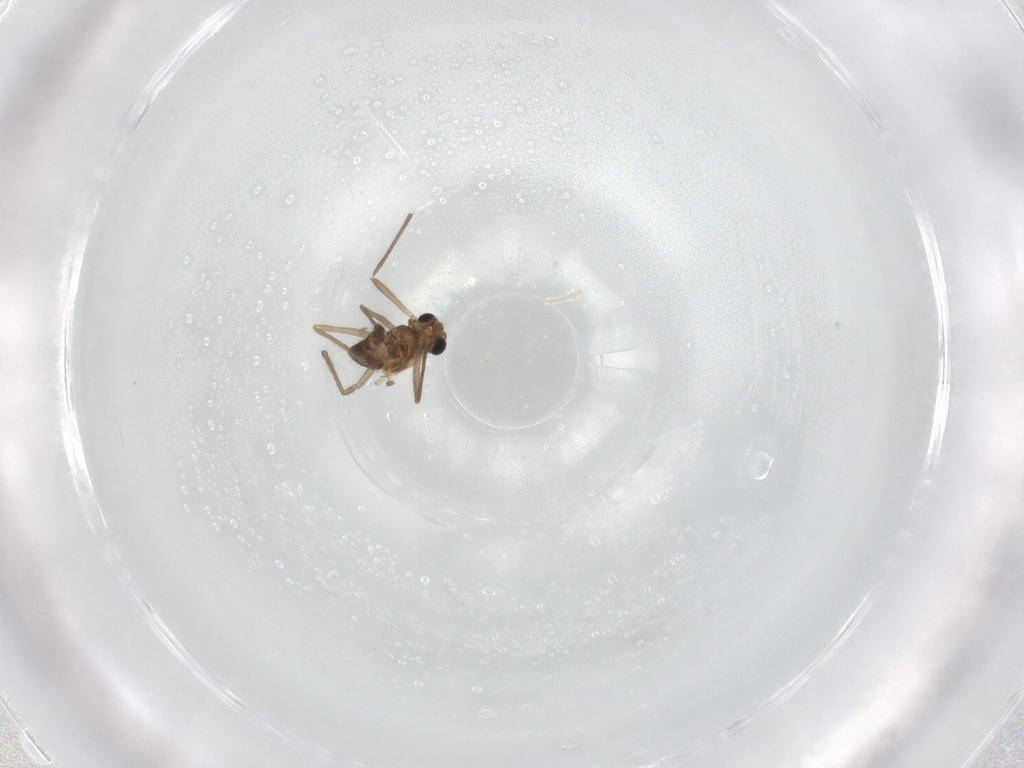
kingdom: Animalia
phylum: Arthropoda
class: Insecta
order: Diptera
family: Chironomidae
